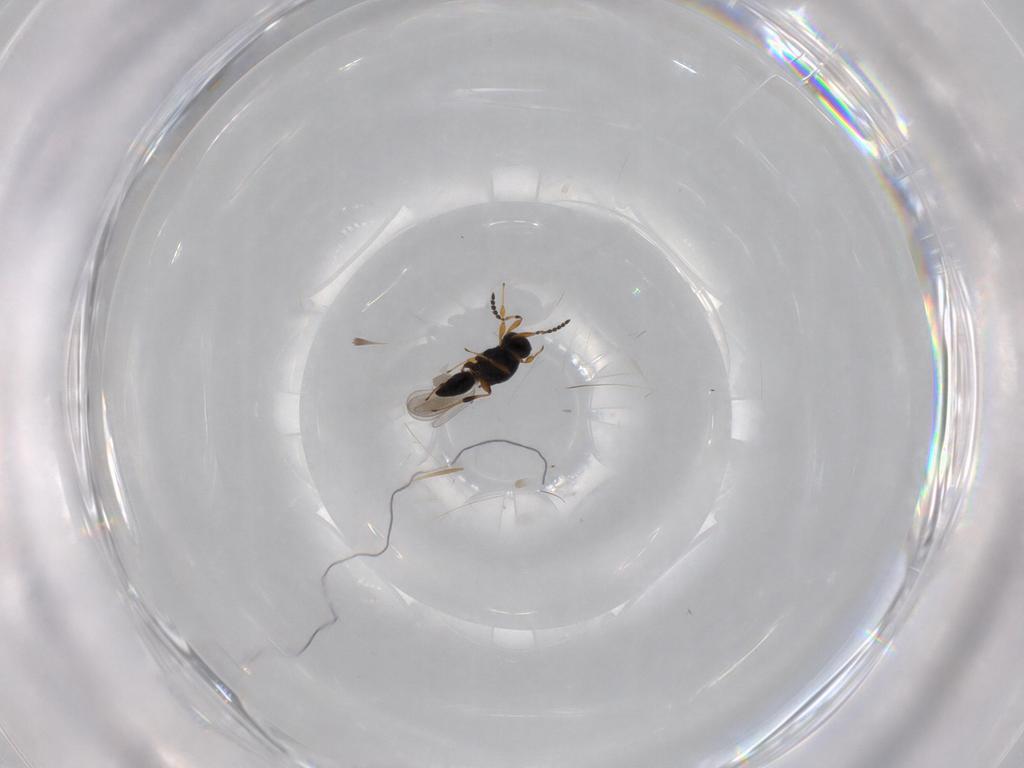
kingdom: Animalia
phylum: Arthropoda
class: Insecta
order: Hymenoptera
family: Platygastridae
